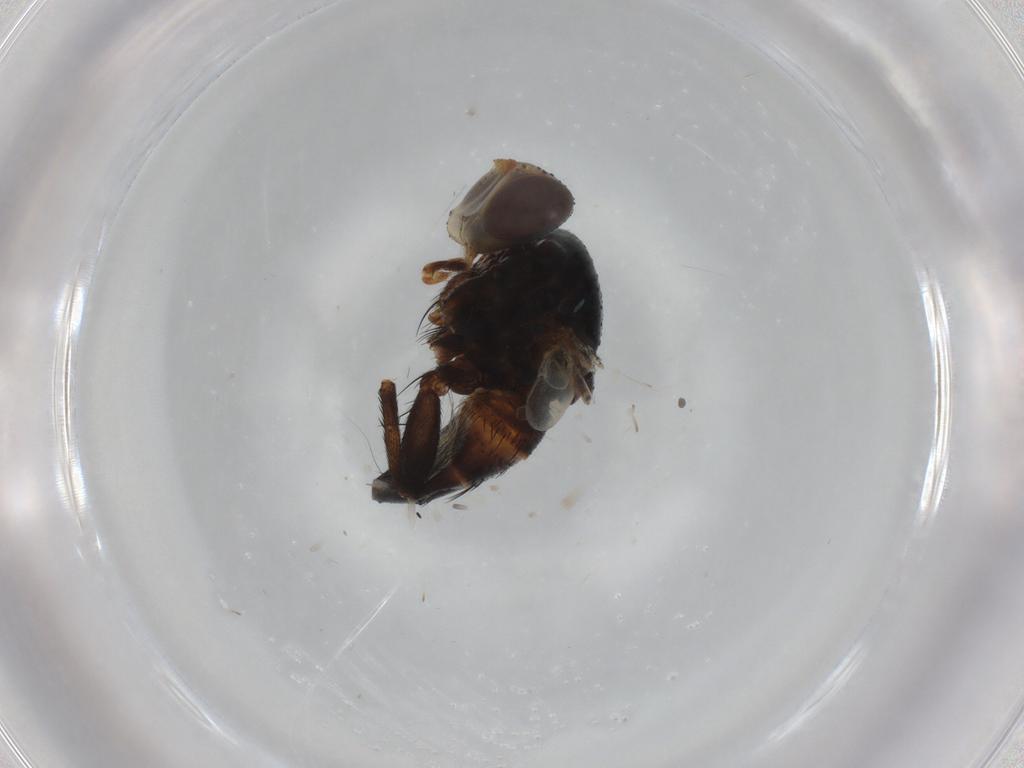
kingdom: Animalia
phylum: Arthropoda
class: Insecta
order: Diptera
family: Tachinidae
